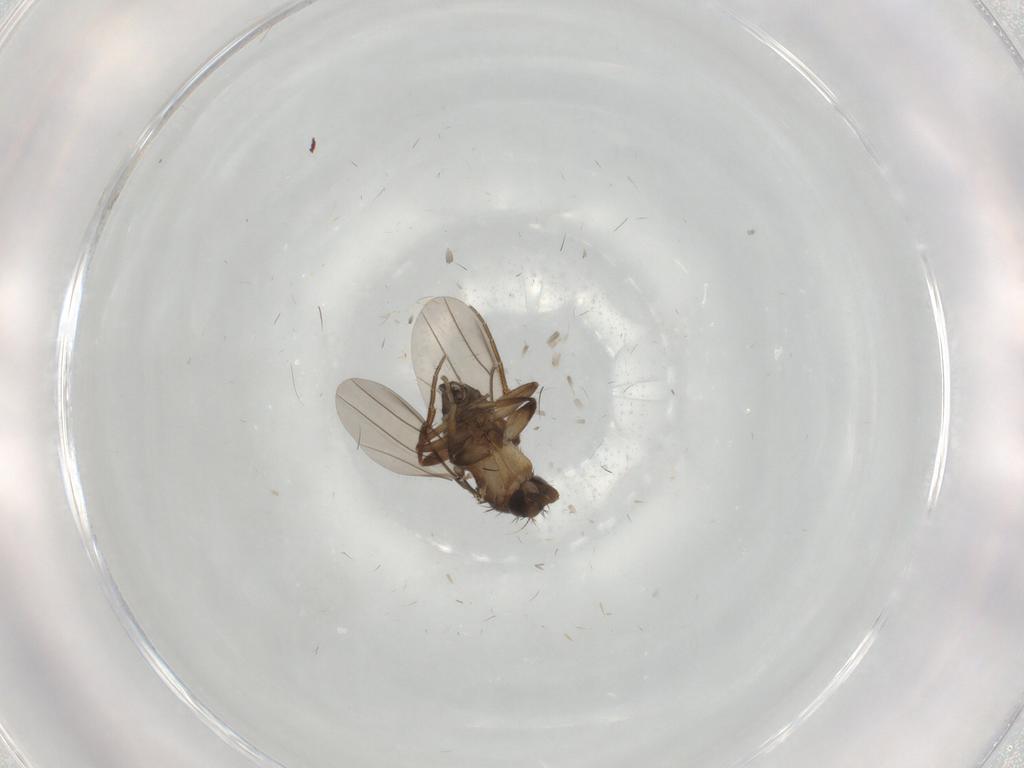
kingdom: Animalia
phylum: Arthropoda
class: Insecta
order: Diptera
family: Phoridae
